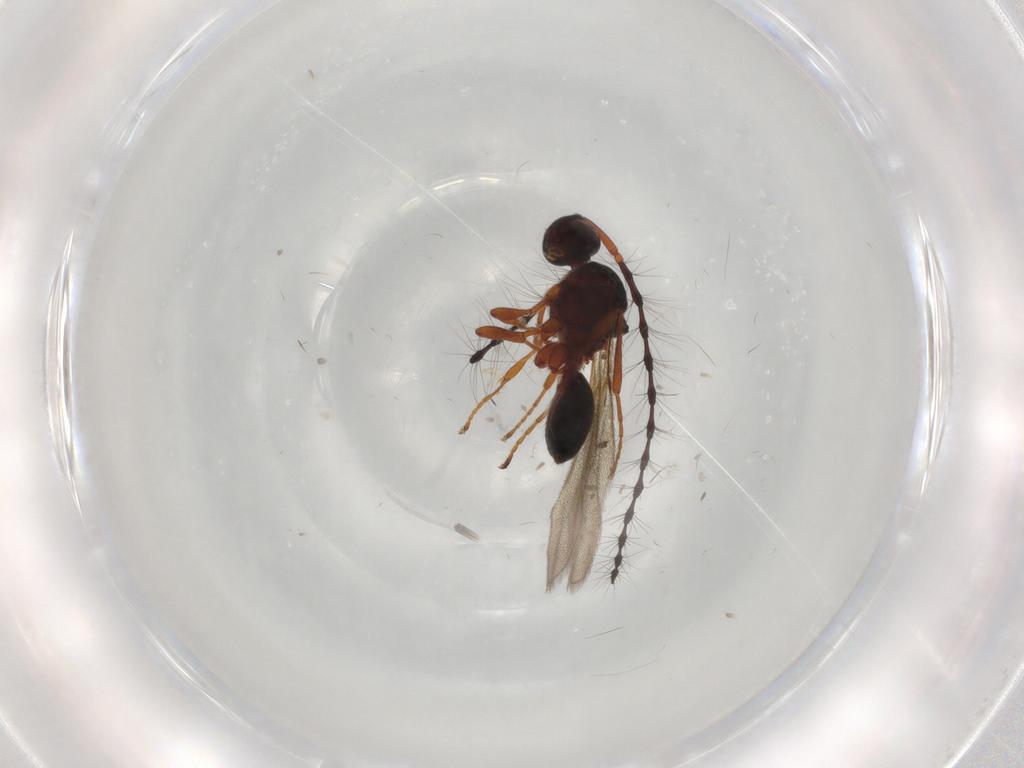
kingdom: Animalia
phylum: Arthropoda
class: Insecta
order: Hymenoptera
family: Diapriidae
